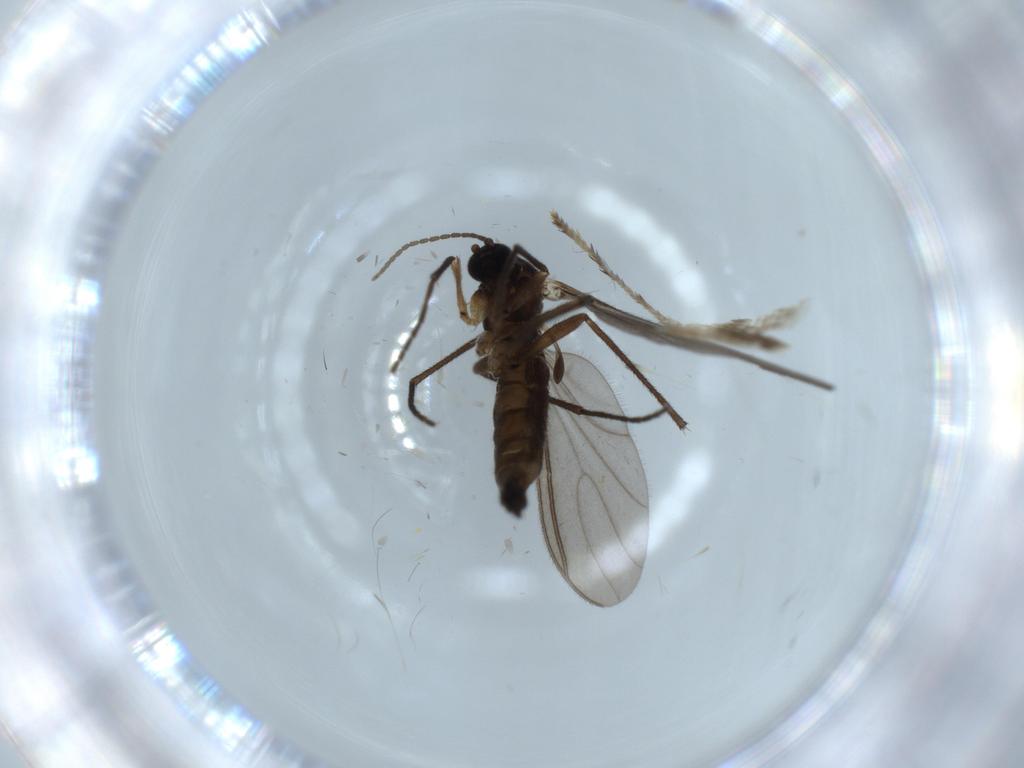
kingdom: Animalia
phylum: Arthropoda
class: Insecta
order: Diptera
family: Sciaridae
